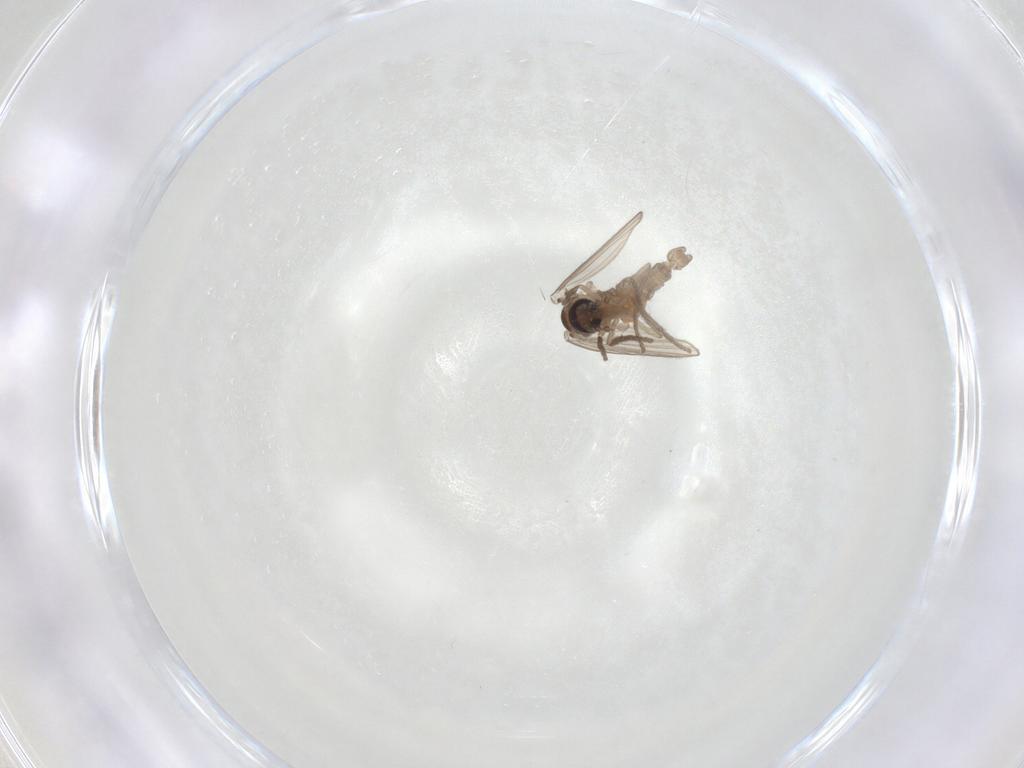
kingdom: Animalia
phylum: Arthropoda
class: Insecta
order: Diptera
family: Psychodidae
